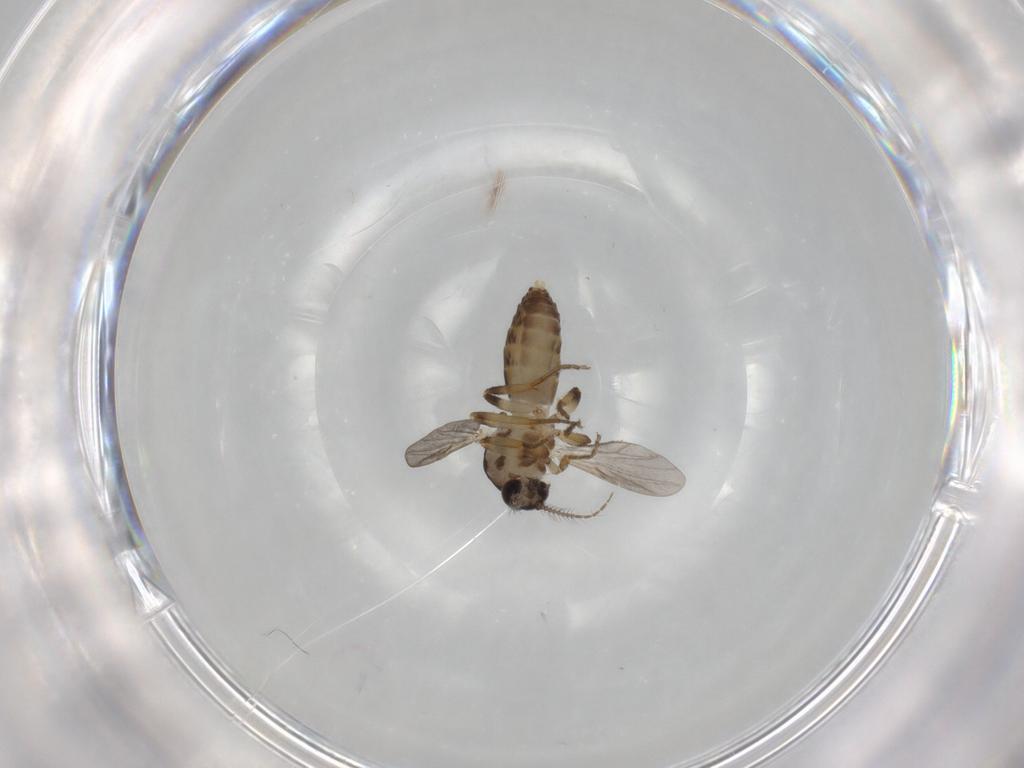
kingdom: Animalia
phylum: Arthropoda
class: Insecta
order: Diptera
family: Ceratopogonidae
